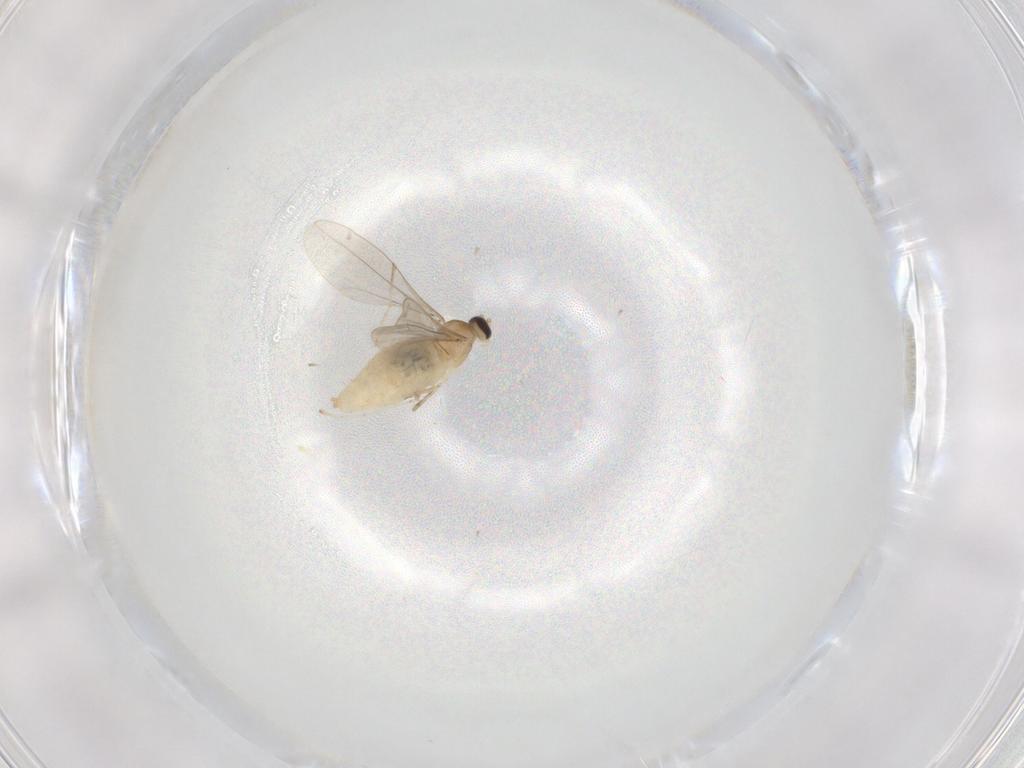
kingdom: Animalia
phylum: Arthropoda
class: Insecta
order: Diptera
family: Cecidomyiidae
